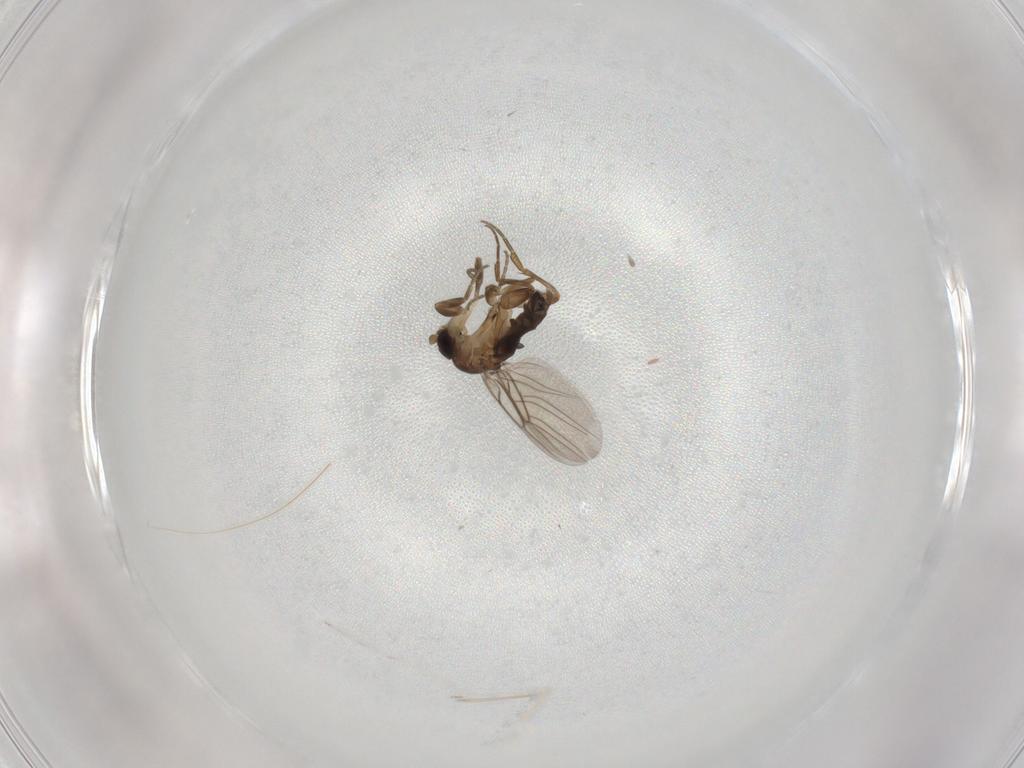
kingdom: Animalia
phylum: Arthropoda
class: Insecta
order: Diptera
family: Phoridae
